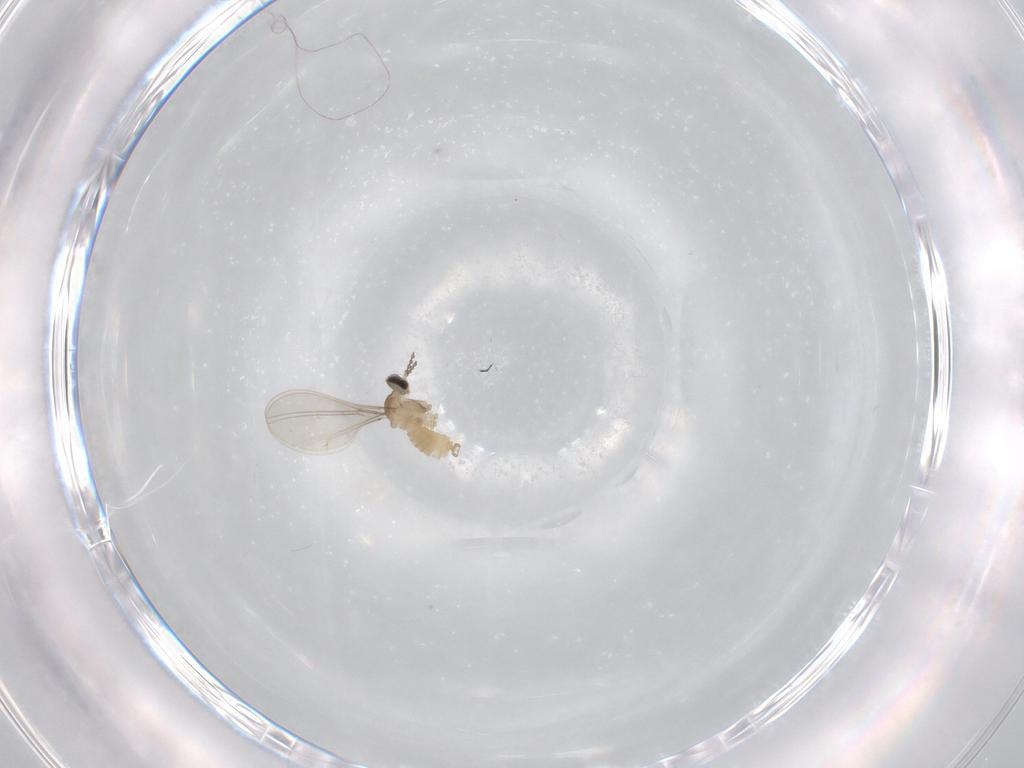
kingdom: Animalia
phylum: Arthropoda
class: Insecta
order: Diptera
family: Cecidomyiidae
